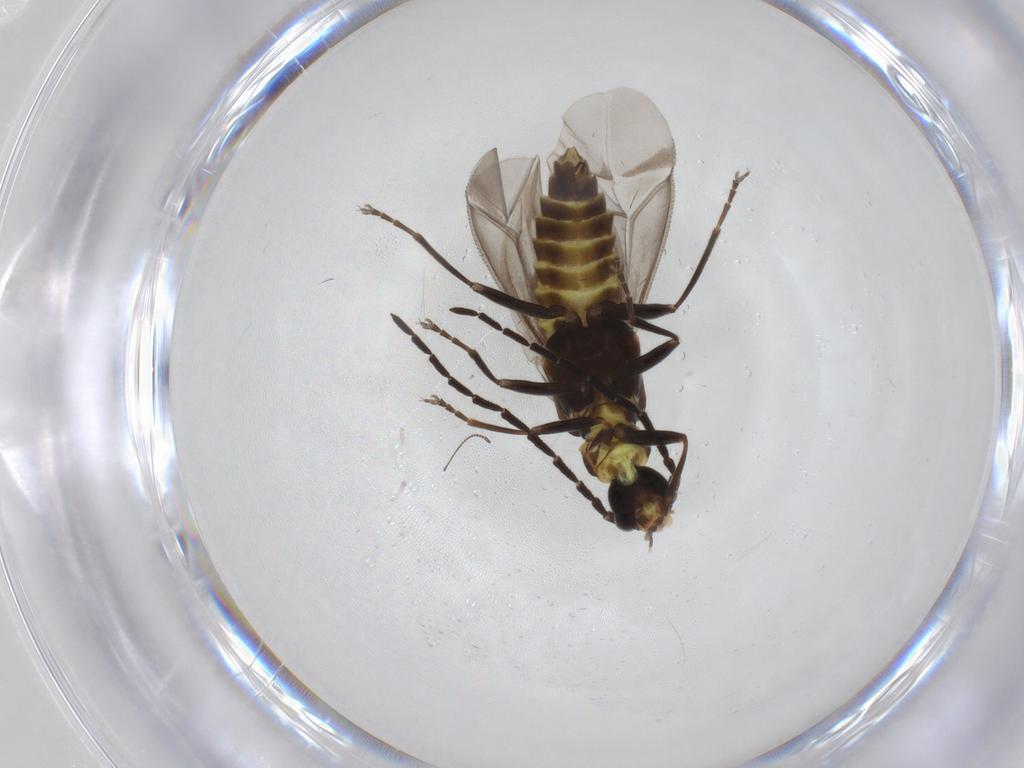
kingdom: Animalia
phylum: Arthropoda
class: Insecta
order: Coleoptera
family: Cantharidae
